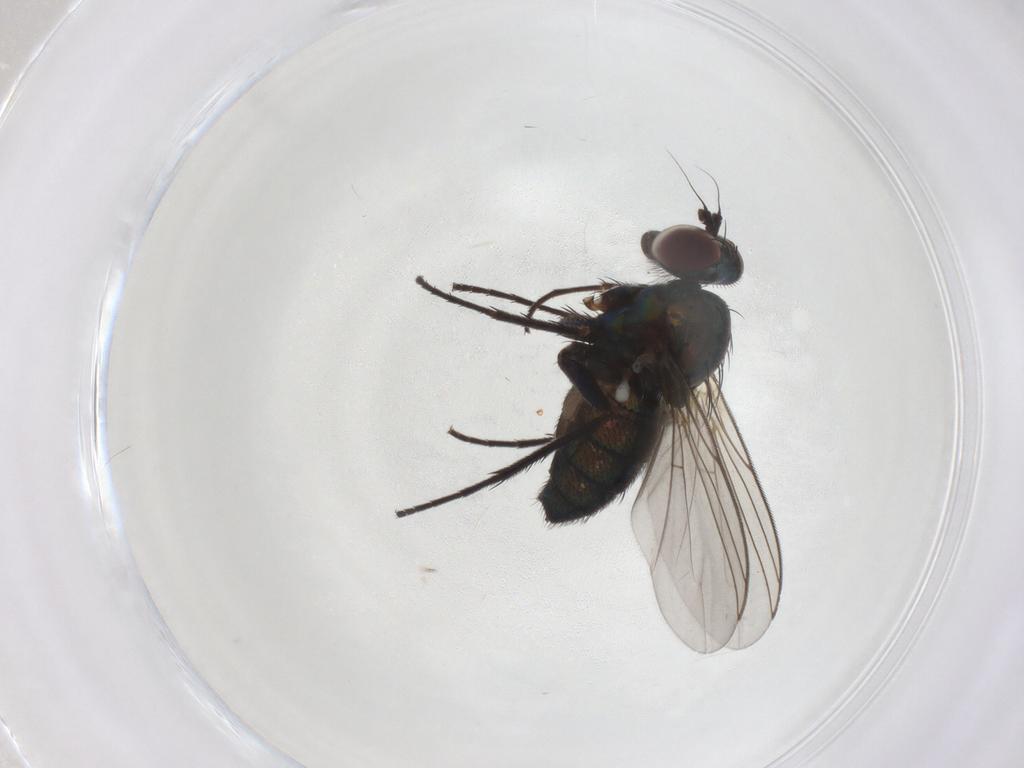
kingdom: Animalia
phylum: Arthropoda
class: Insecta
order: Diptera
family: Dolichopodidae
